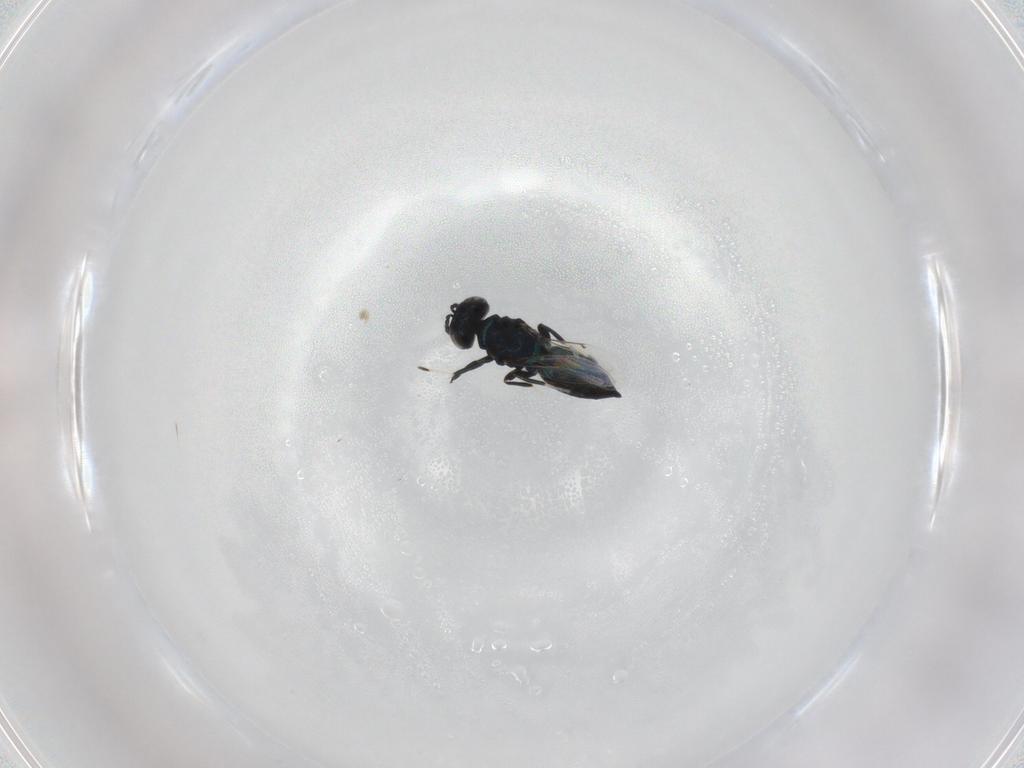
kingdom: Animalia
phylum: Arthropoda
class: Insecta
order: Hymenoptera
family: Eulophidae
